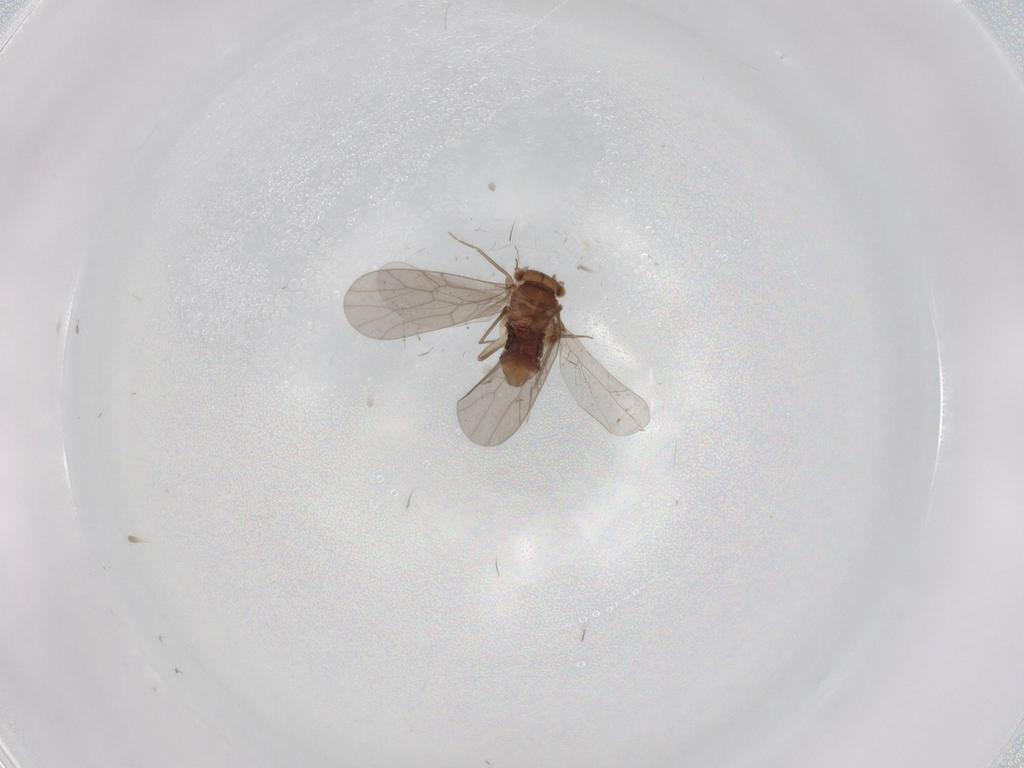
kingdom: Animalia
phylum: Arthropoda
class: Insecta
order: Psocodea
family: Lepidopsocidae
